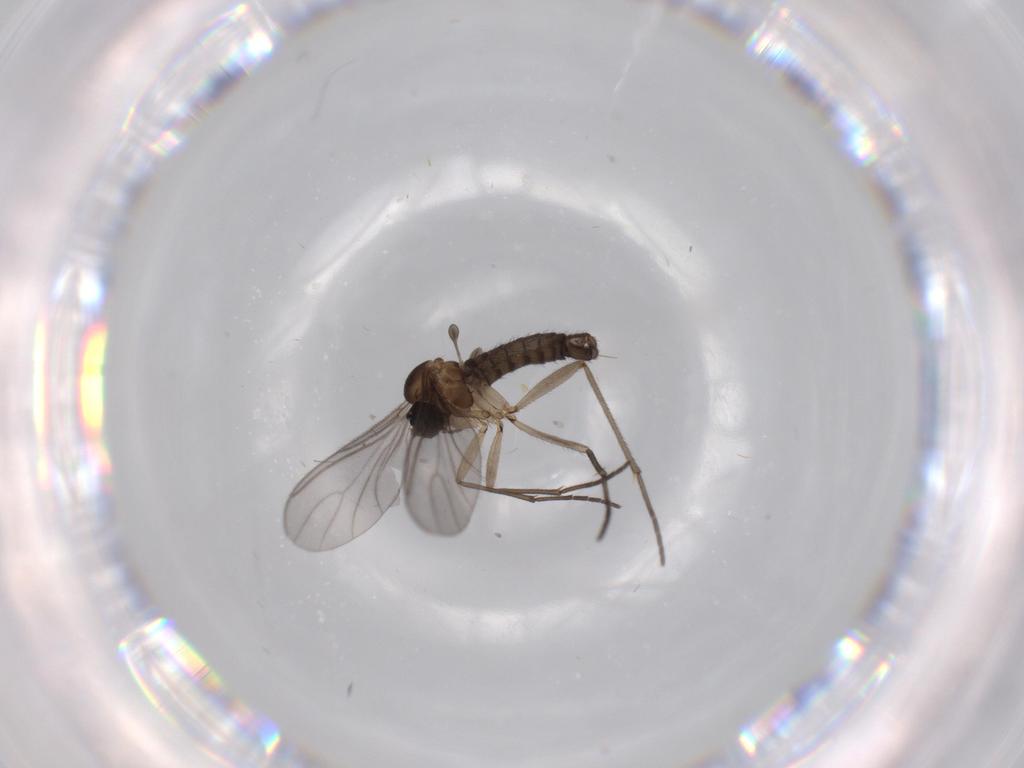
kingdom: Animalia
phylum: Arthropoda
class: Insecta
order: Diptera
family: Sciaridae
